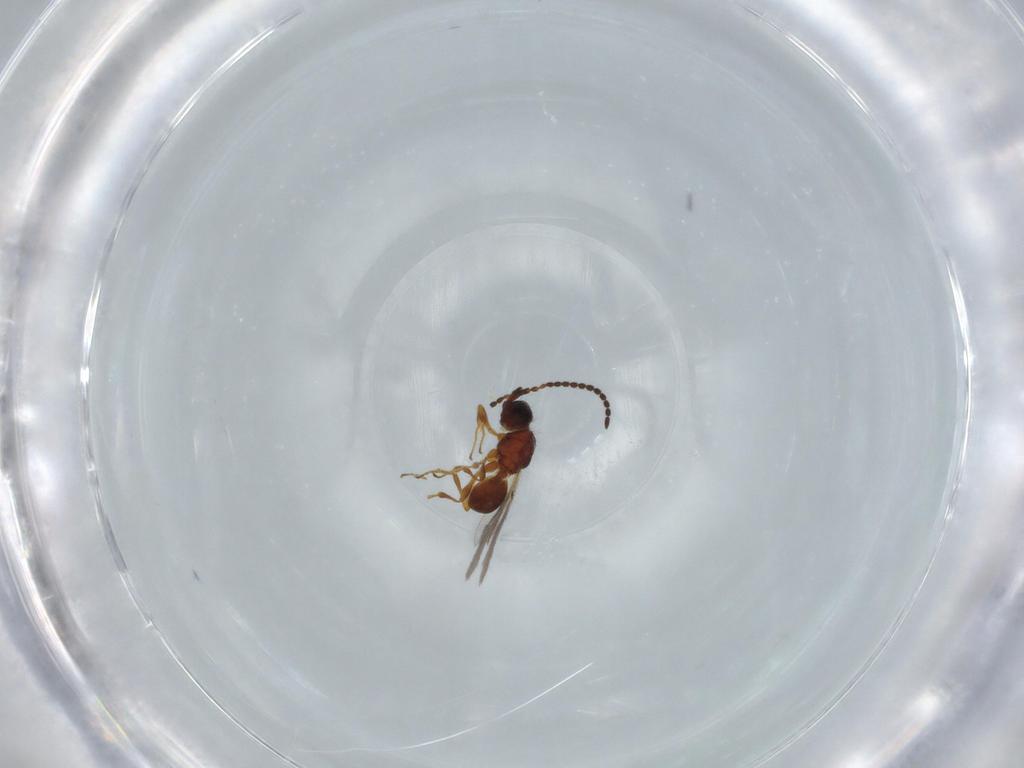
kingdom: Animalia
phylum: Arthropoda
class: Insecta
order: Hymenoptera
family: Diapriidae
